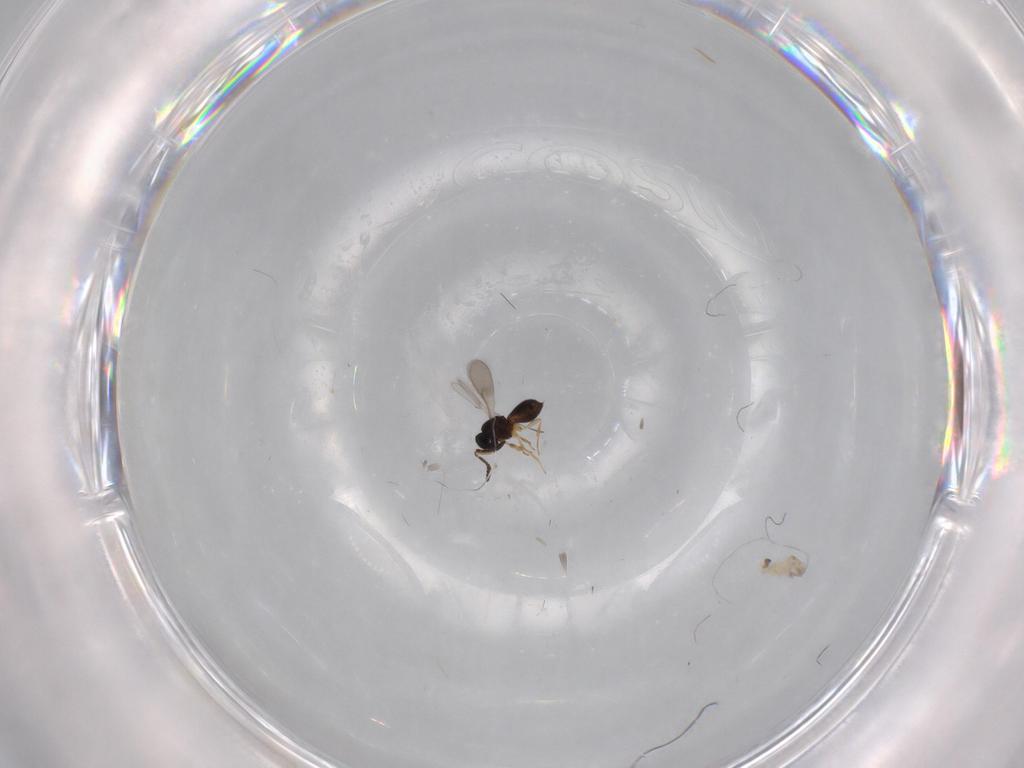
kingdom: Animalia
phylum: Arthropoda
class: Insecta
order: Hymenoptera
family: Scelionidae
